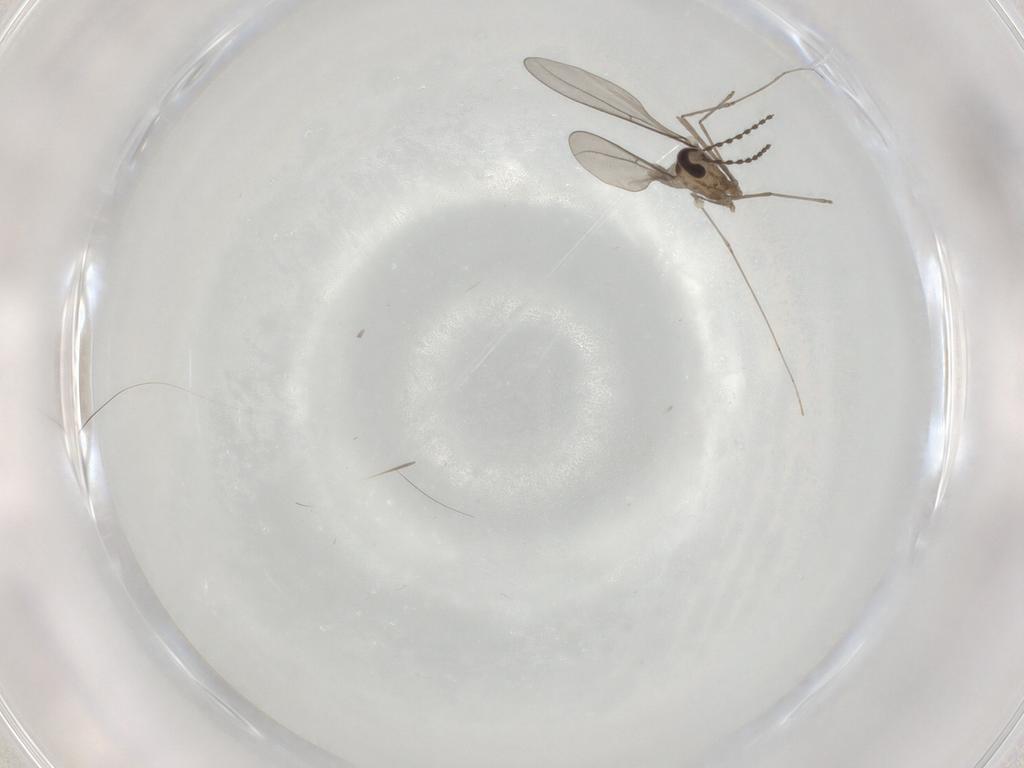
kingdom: Animalia
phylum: Arthropoda
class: Insecta
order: Diptera
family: Cecidomyiidae
